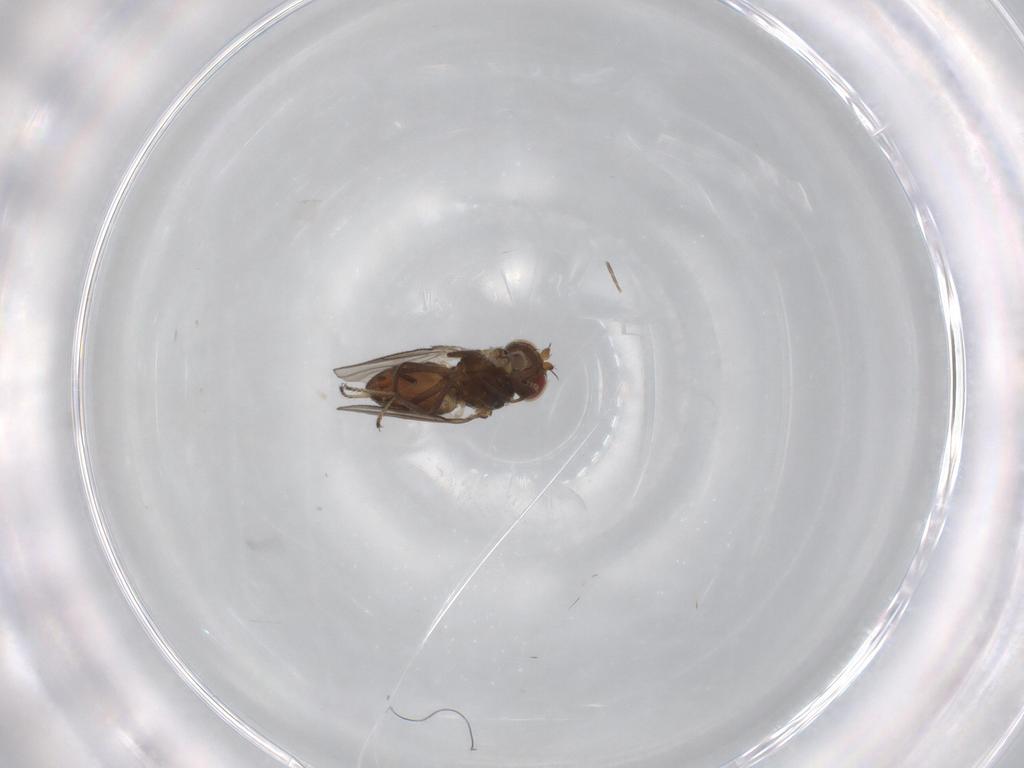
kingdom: Animalia
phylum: Arthropoda
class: Insecta
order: Diptera
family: Ephydridae
